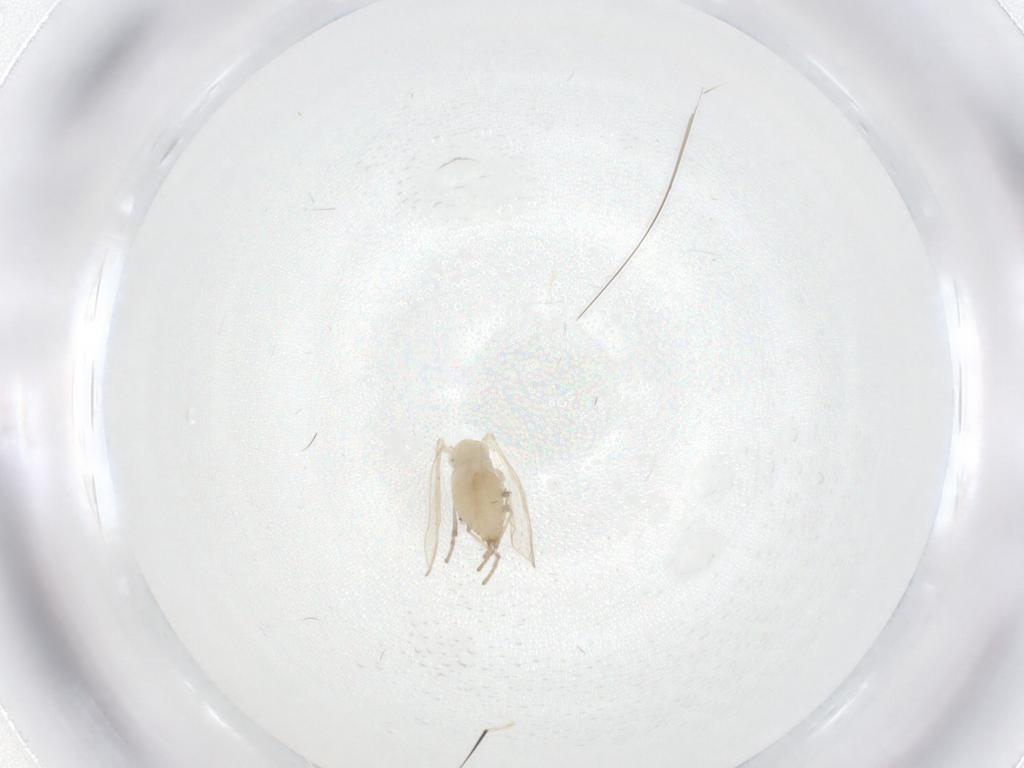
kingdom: Animalia
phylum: Arthropoda
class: Insecta
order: Diptera
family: Psychodidae
